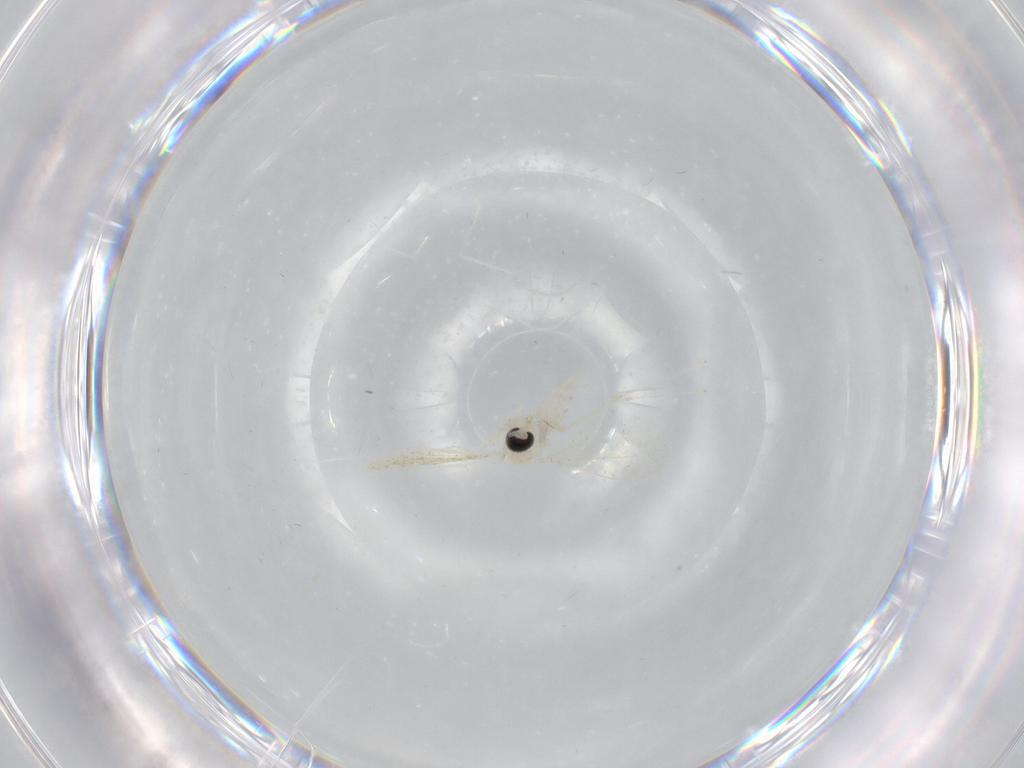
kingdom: Animalia
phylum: Arthropoda
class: Insecta
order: Diptera
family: Cecidomyiidae
